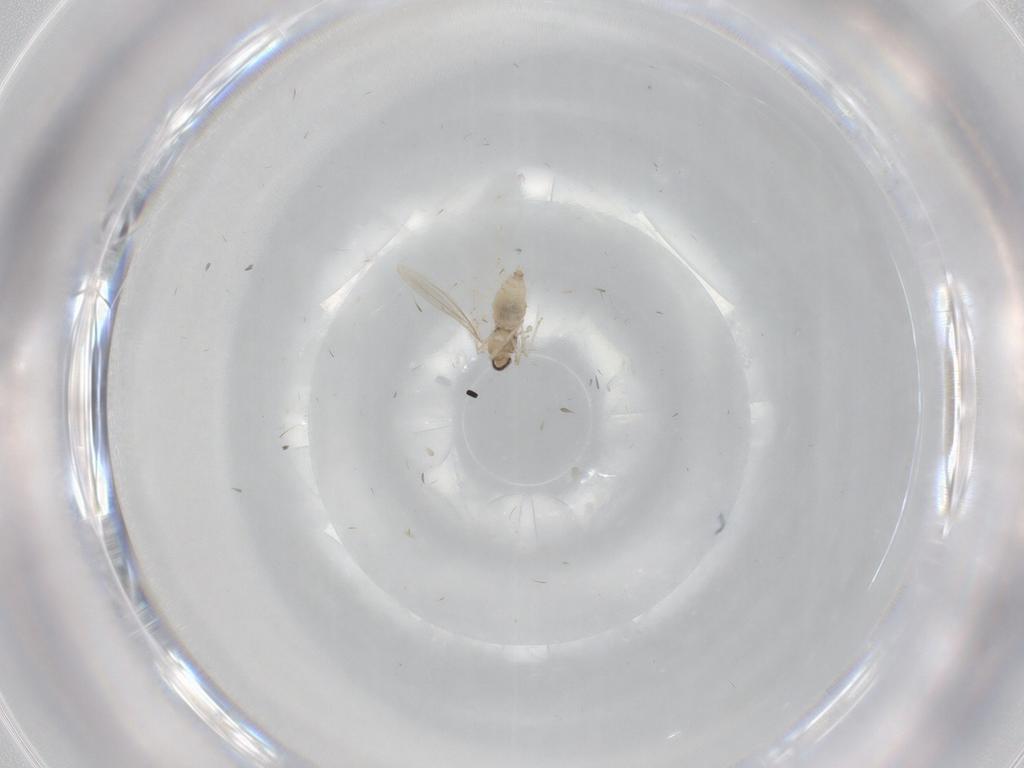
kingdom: Animalia
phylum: Arthropoda
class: Insecta
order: Diptera
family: Chironomidae
